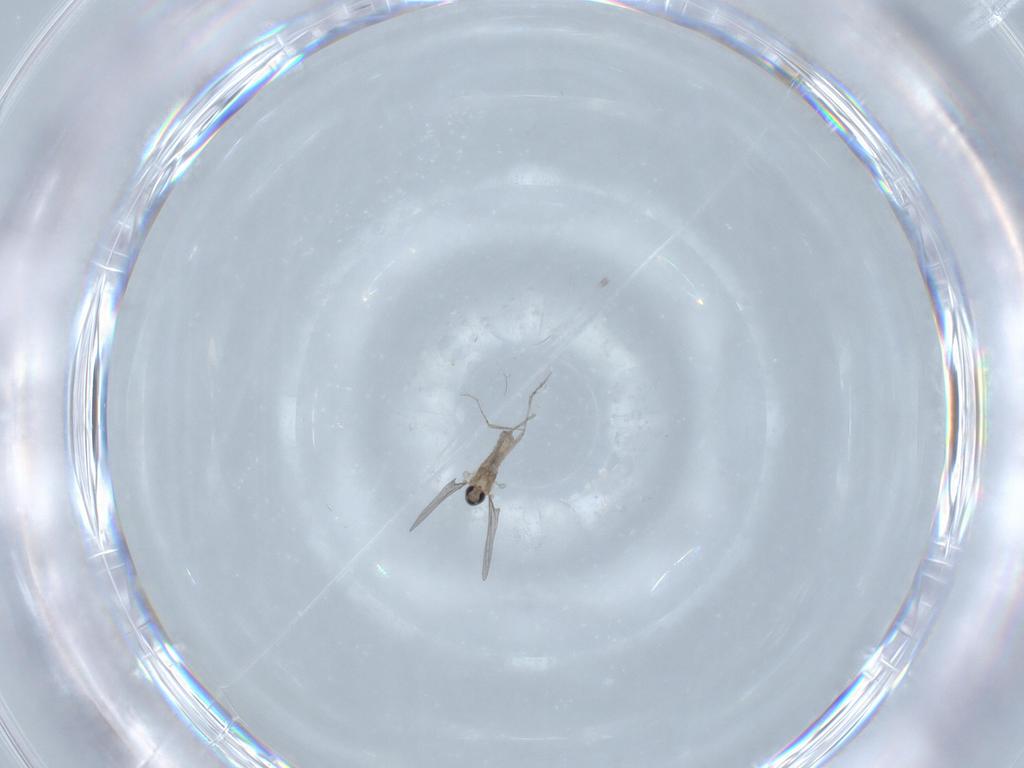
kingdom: Animalia
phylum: Arthropoda
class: Insecta
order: Diptera
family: Cecidomyiidae
